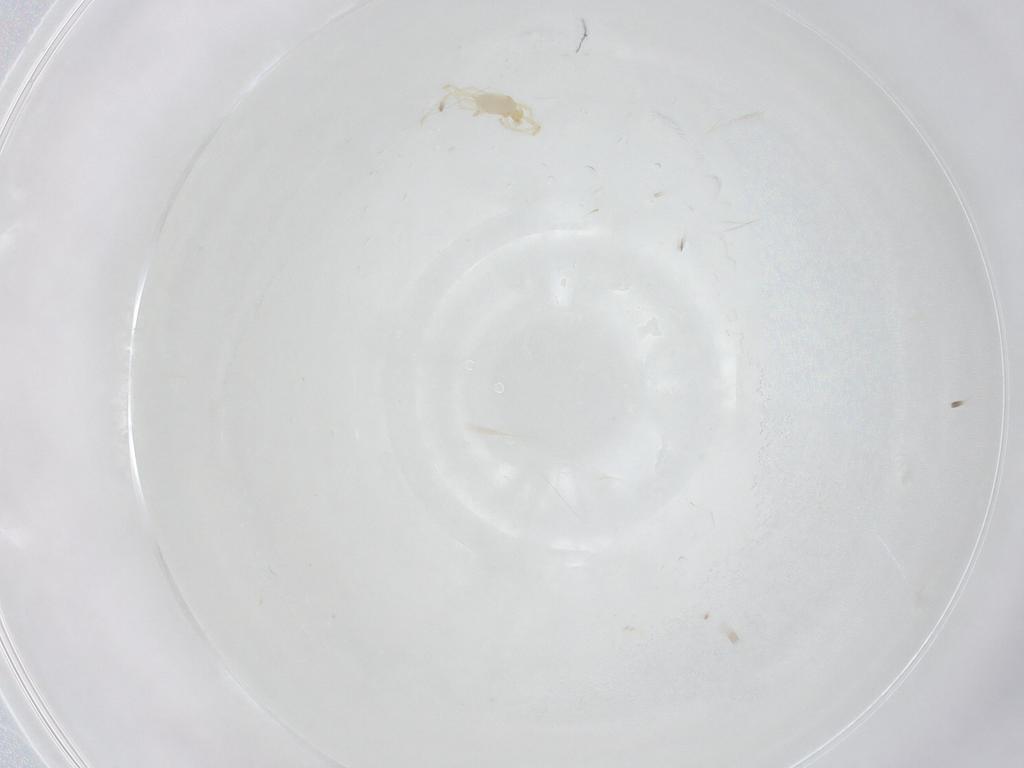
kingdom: Animalia
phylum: Arthropoda
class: Arachnida
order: Trombidiformes
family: Erythraeidae
